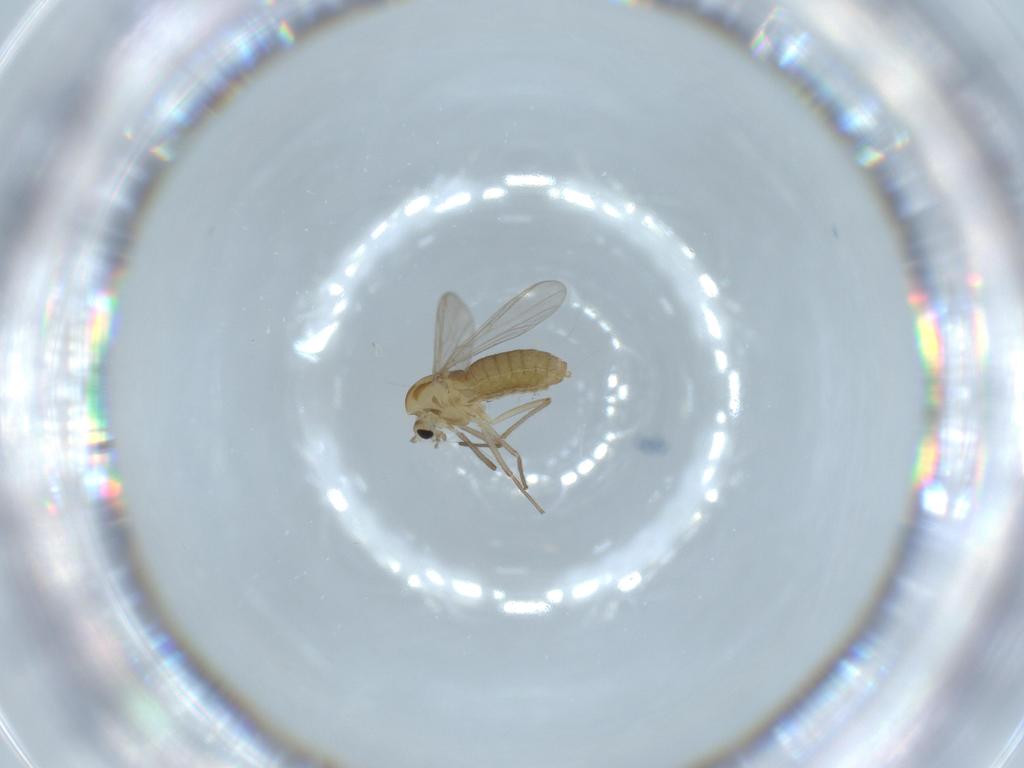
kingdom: Animalia
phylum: Arthropoda
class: Insecta
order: Diptera
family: Chironomidae
